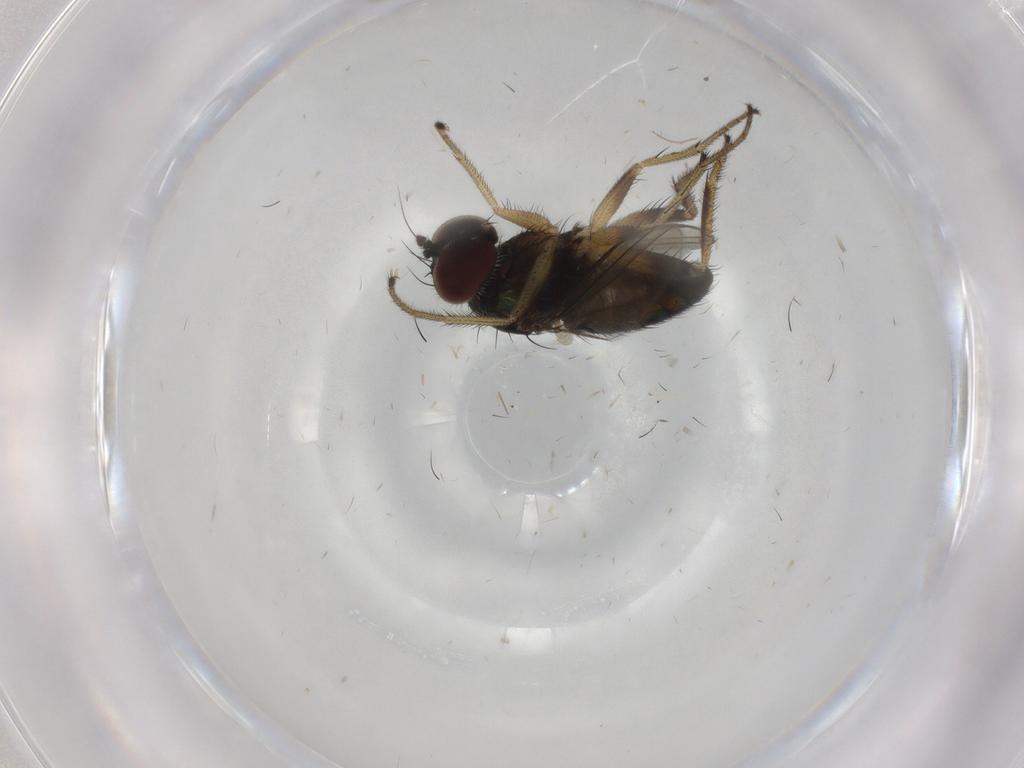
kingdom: Animalia
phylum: Arthropoda
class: Insecta
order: Diptera
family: Dolichopodidae
